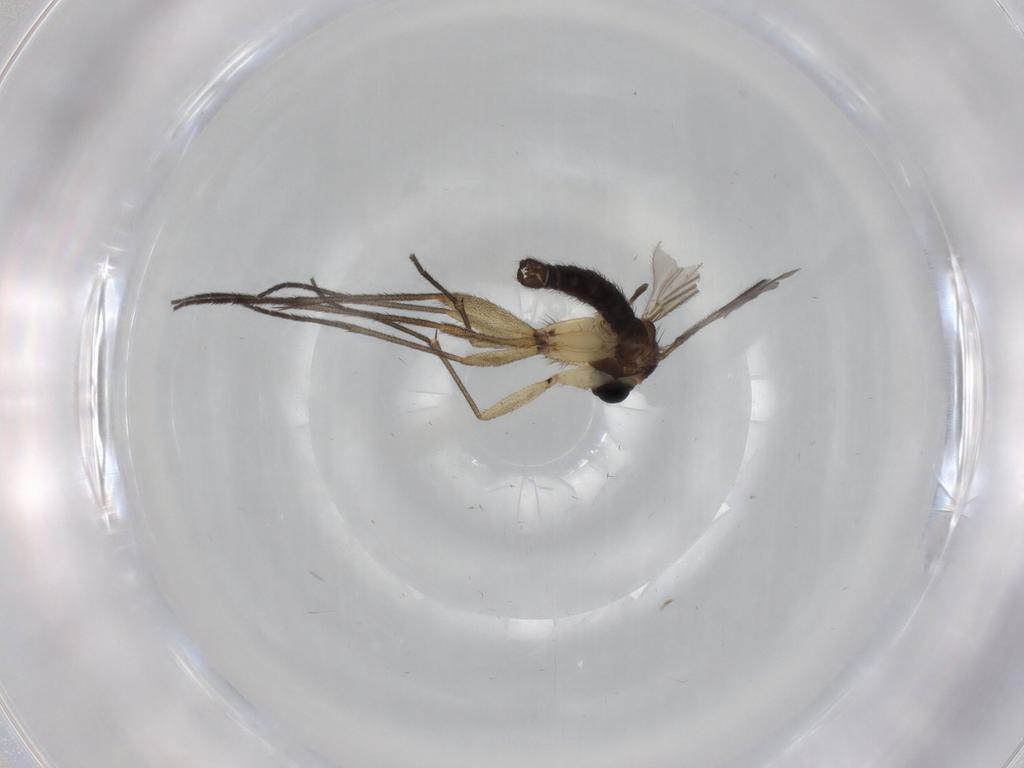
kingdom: Animalia
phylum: Arthropoda
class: Insecta
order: Diptera
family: Sciaridae
